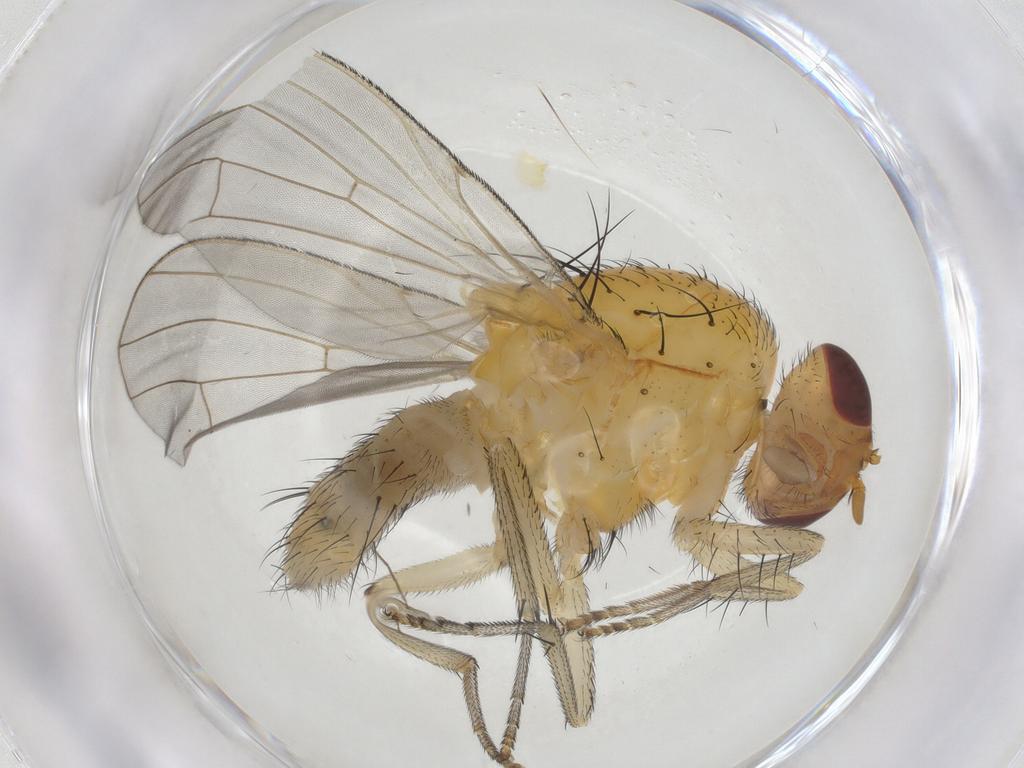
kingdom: Animalia
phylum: Arthropoda
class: Insecta
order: Diptera
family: Lauxaniidae
